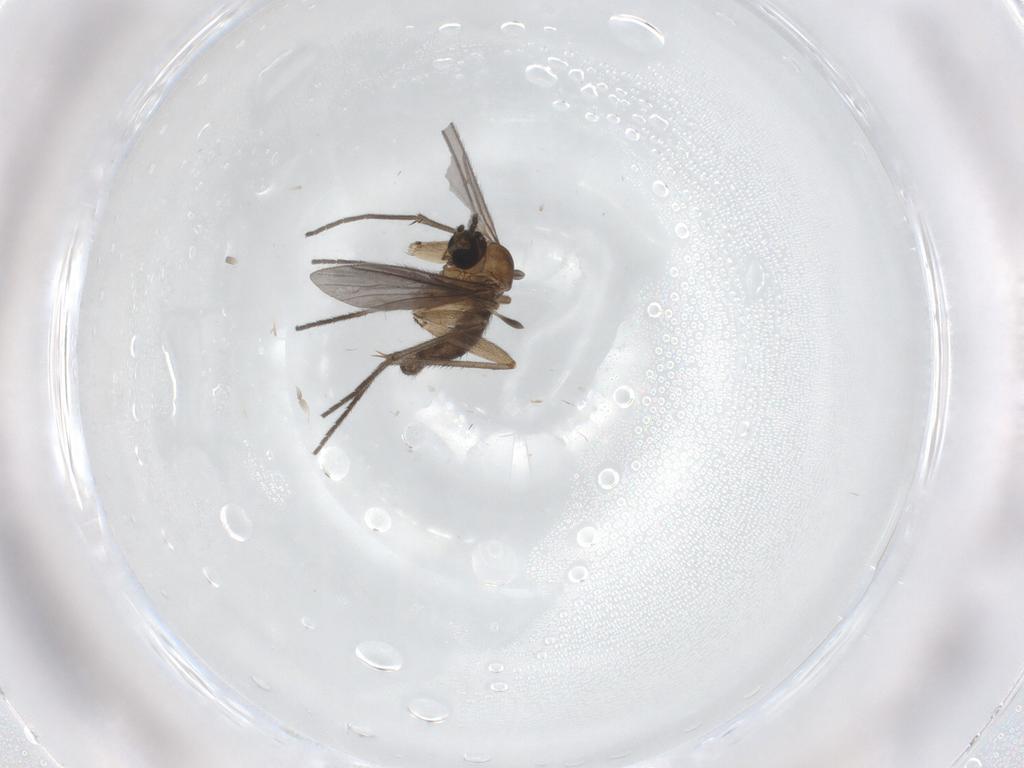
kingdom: Animalia
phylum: Arthropoda
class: Insecta
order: Diptera
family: Sciaridae
